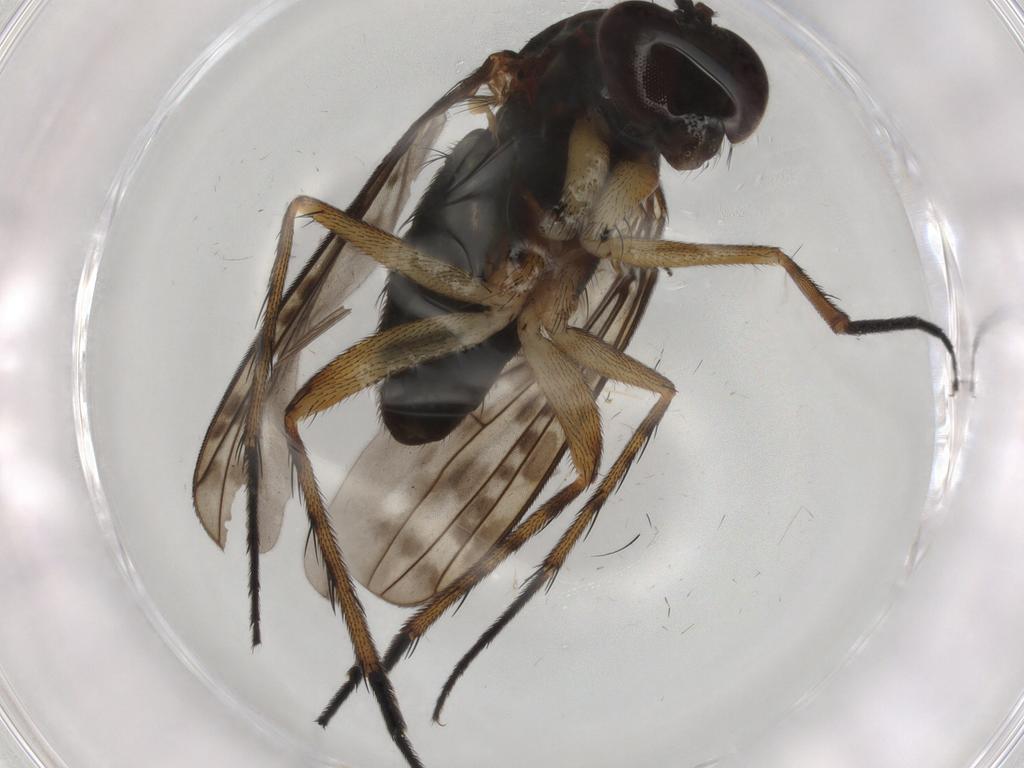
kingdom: Animalia
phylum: Arthropoda
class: Insecta
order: Diptera
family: Dolichopodidae
